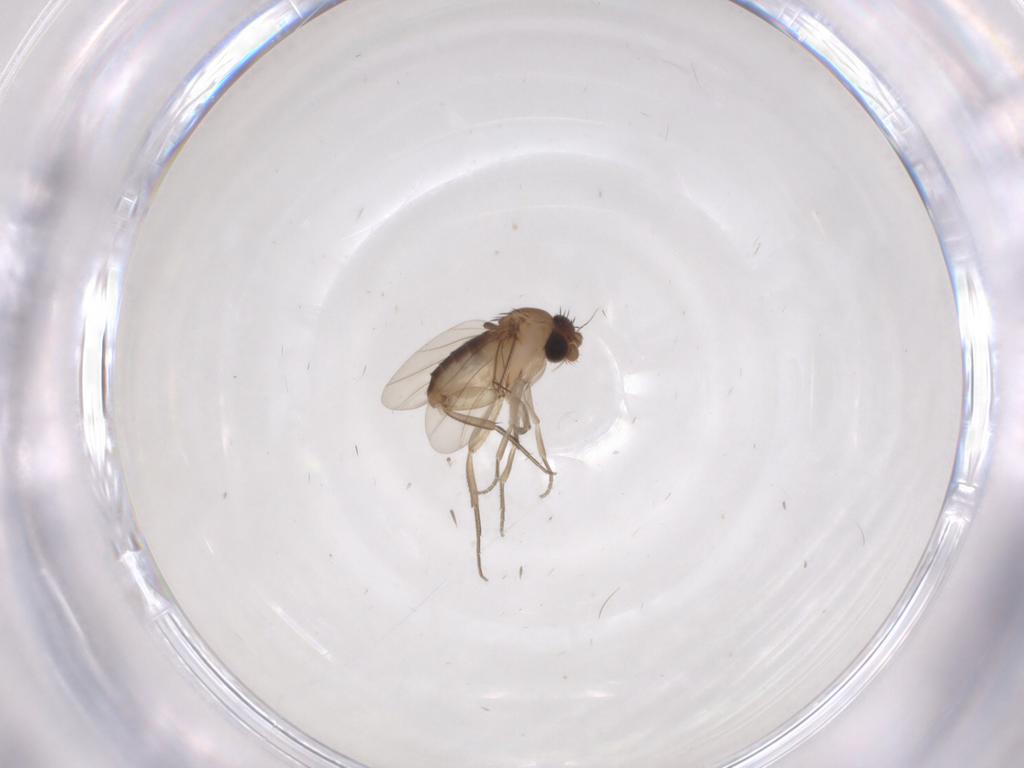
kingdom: Animalia
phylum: Arthropoda
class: Insecta
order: Diptera
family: Phoridae
